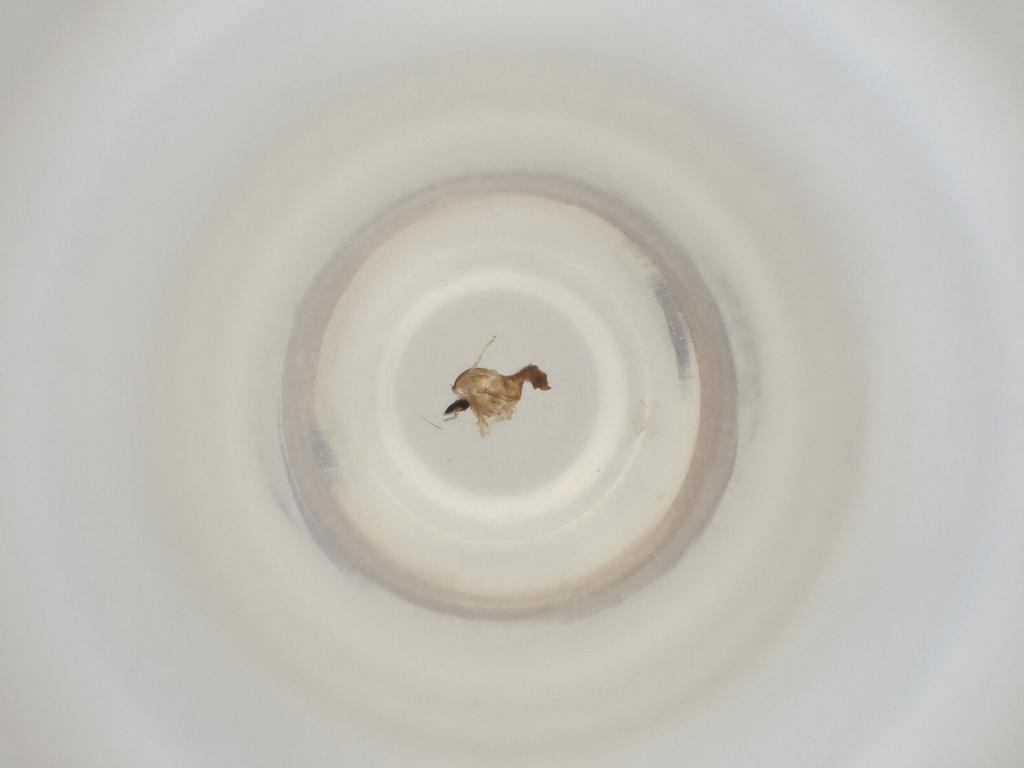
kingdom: Animalia
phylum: Arthropoda
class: Insecta
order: Diptera
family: Cecidomyiidae
